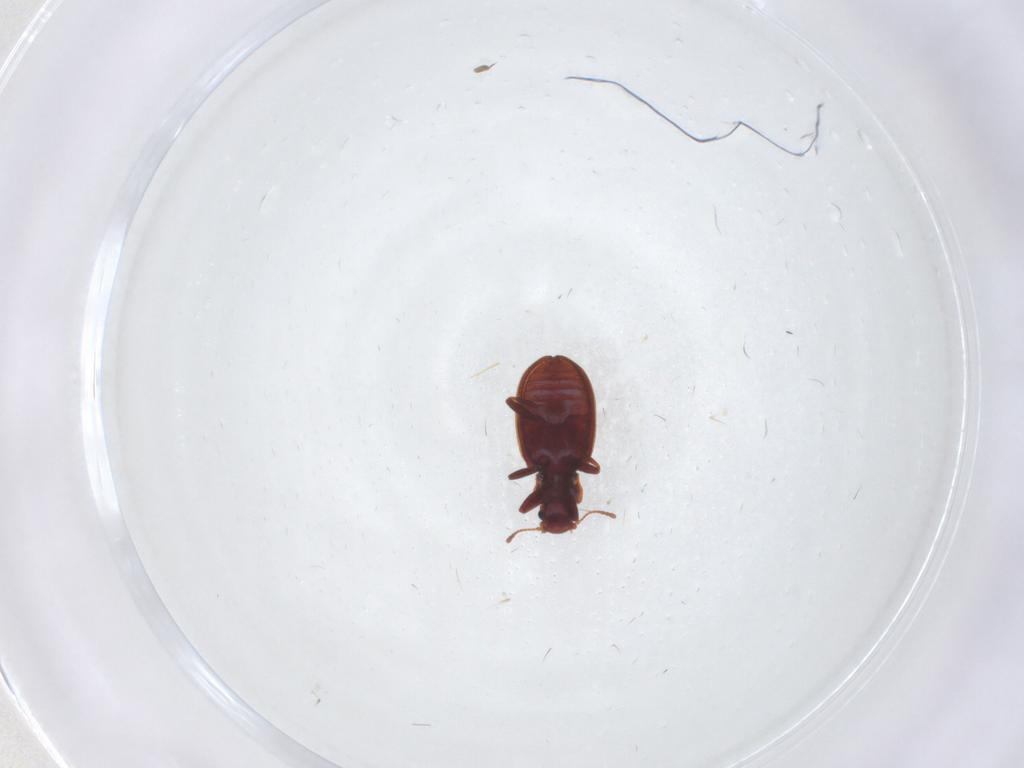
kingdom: Animalia
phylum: Arthropoda
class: Insecta
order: Coleoptera
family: Latridiidae
